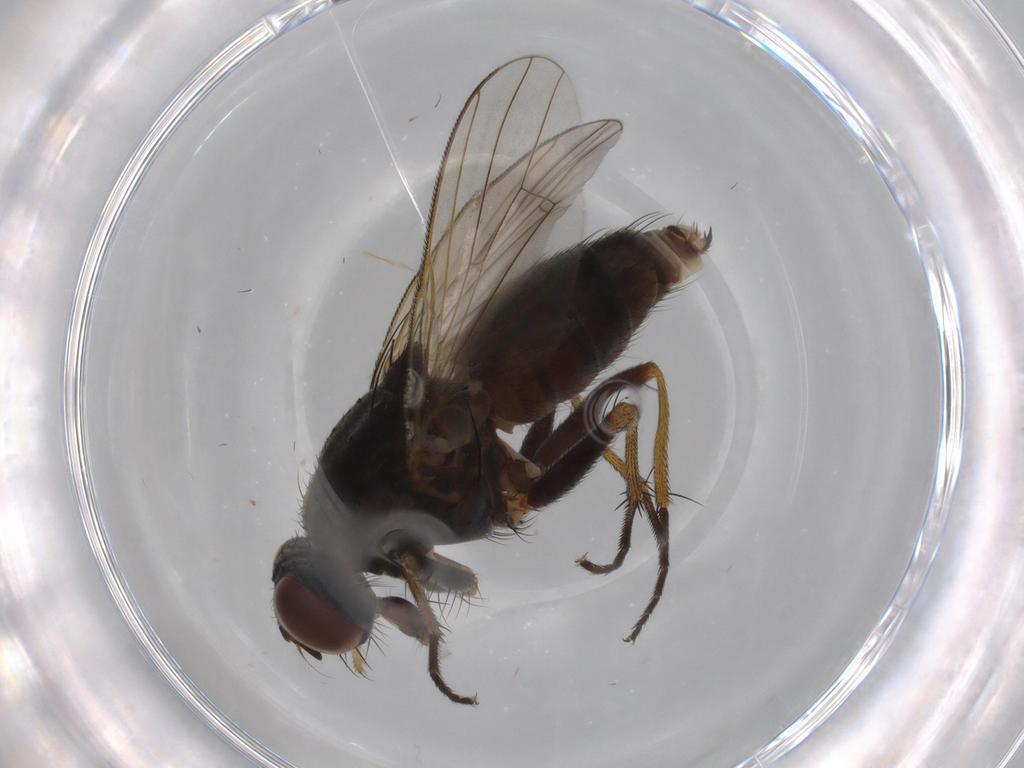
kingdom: Animalia
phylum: Arthropoda
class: Insecta
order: Diptera
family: Muscidae
